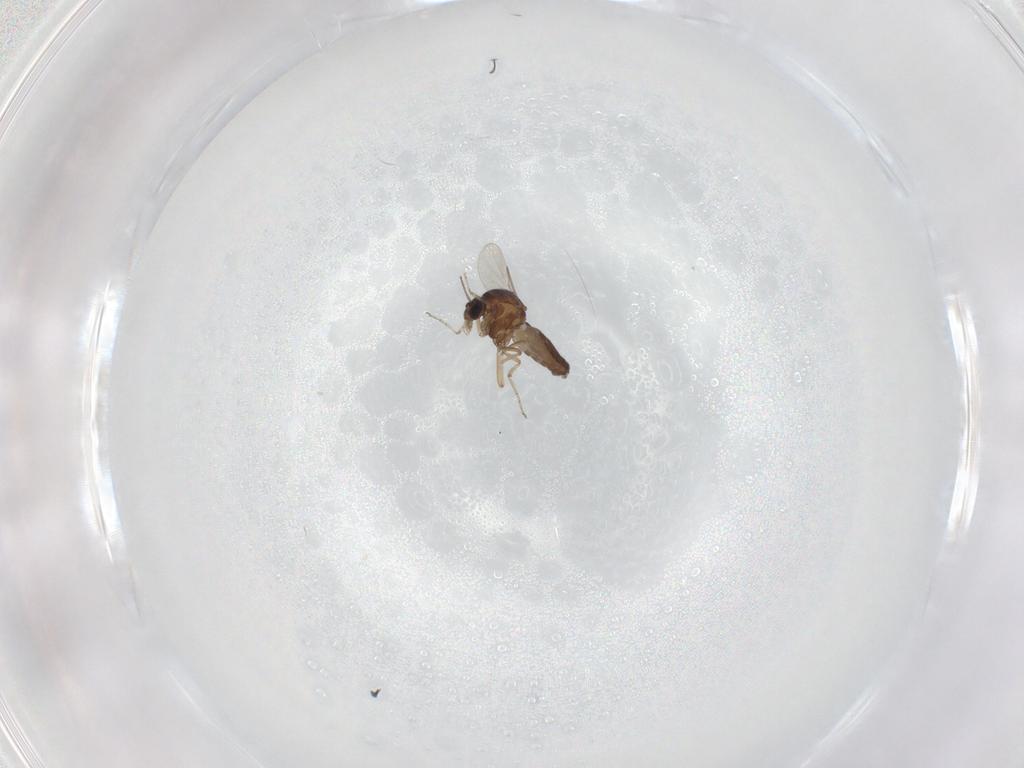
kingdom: Animalia
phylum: Arthropoda
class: Insecta
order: Diptera
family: Ceratopogonidae
